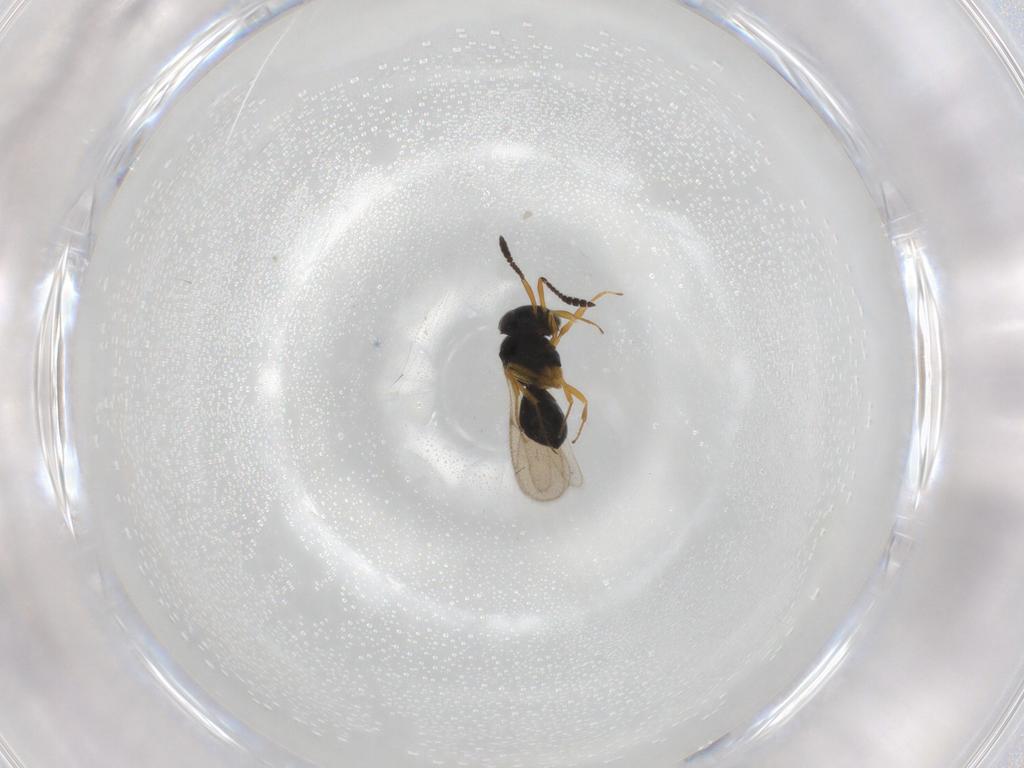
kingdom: Animalia
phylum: Arthropoda
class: Insecta
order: Hymenoptera
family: Scelionidae
